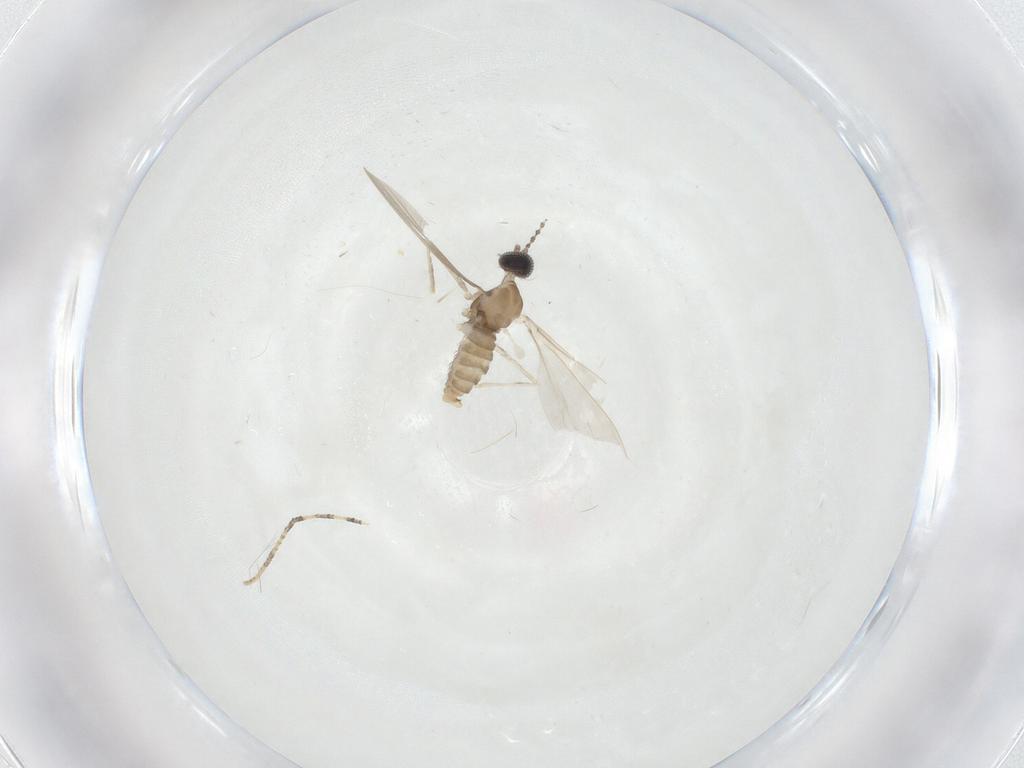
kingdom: Animalia
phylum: Arthropoda
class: Insecta
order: Diptera
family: Cecidomyiidae
